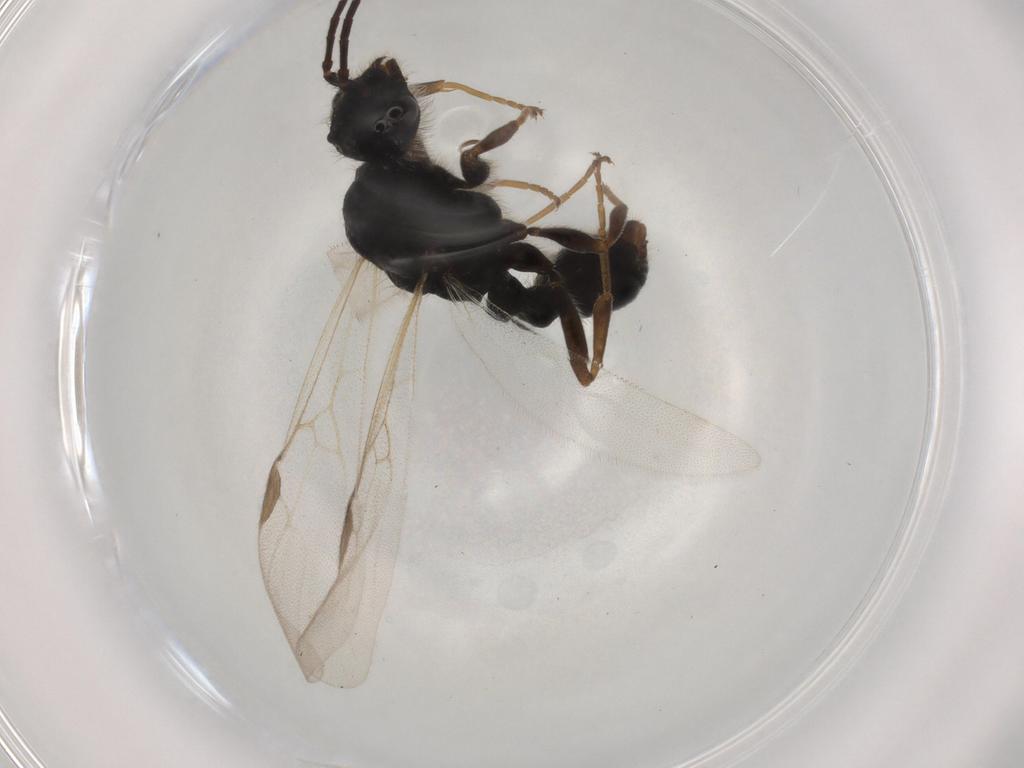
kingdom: Animalia
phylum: Arthropoda
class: Insecta
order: Hymenoptera
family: Formicidae
